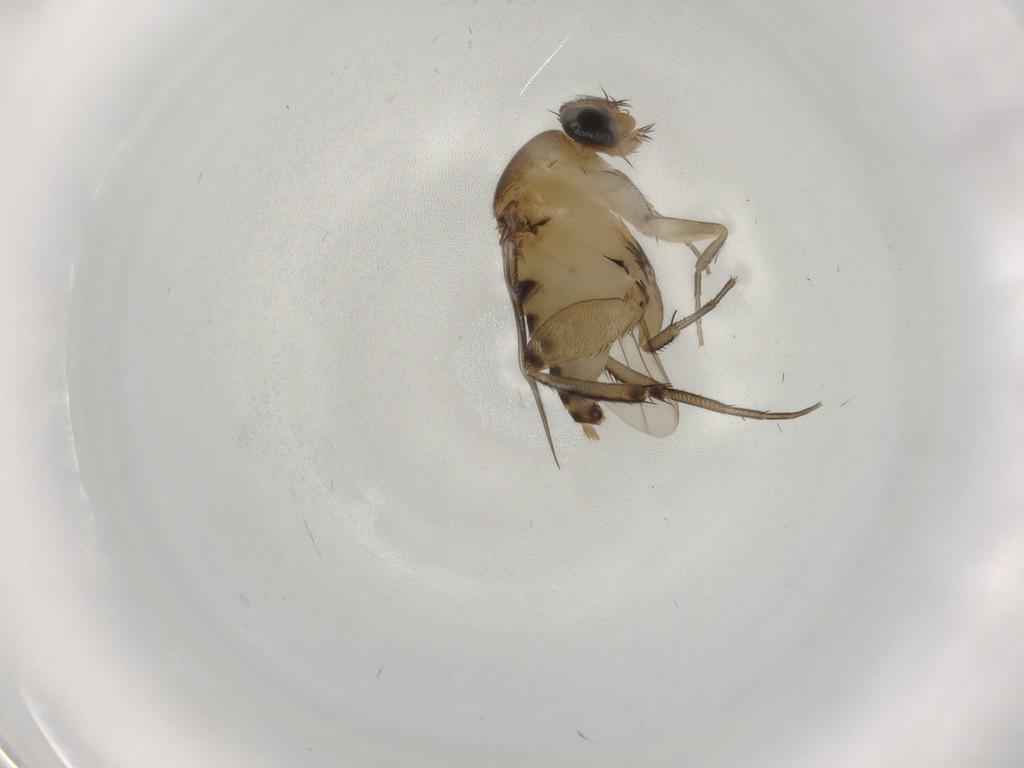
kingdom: Animalia
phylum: Arthropoda
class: Insecta
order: Diptera
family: Phoridae
